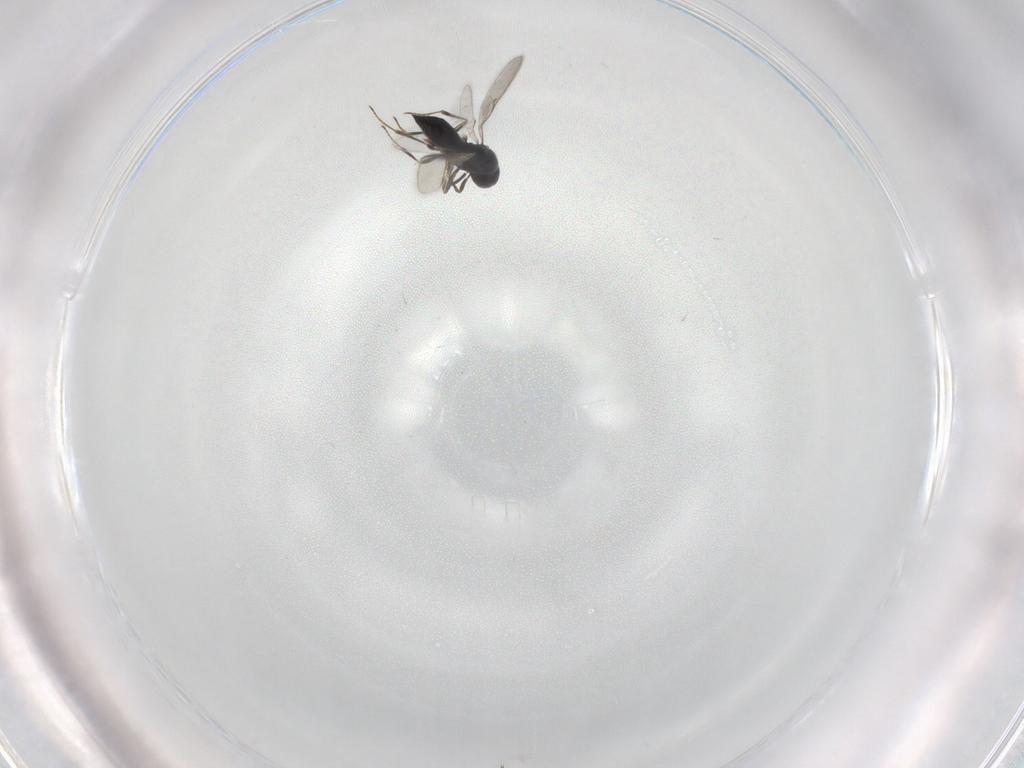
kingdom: Animalia
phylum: Arthropoda
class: Insecta
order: Hymenoptera
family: Scelionidae
